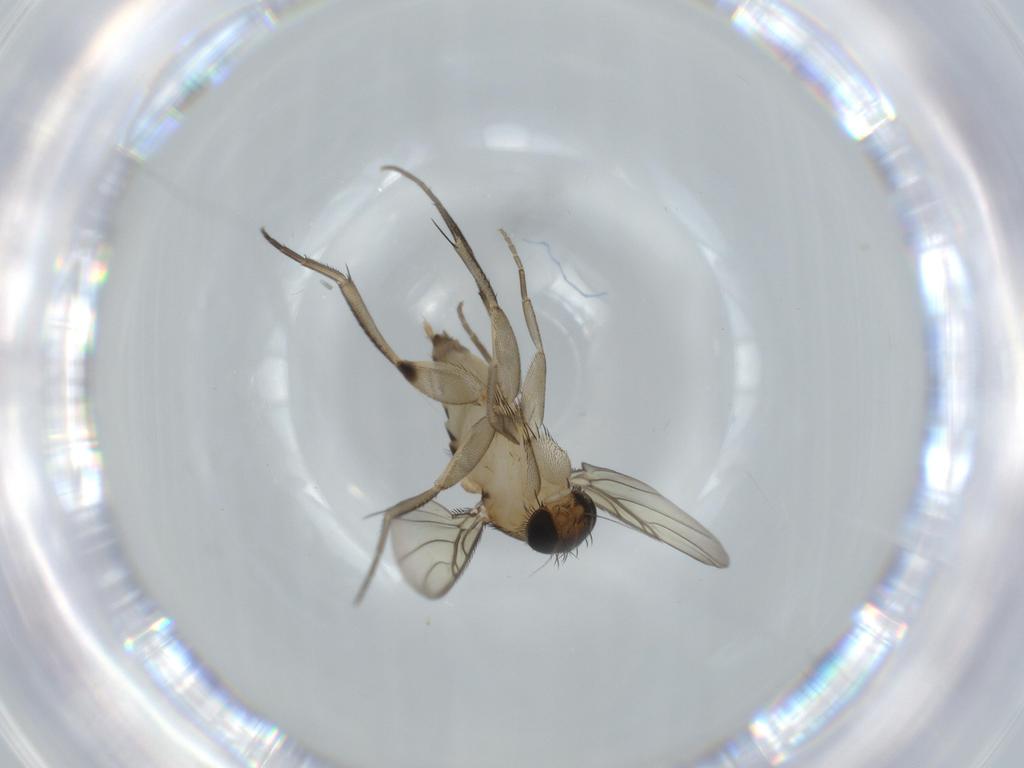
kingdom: Animalia
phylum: Arthropoda
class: Insecta
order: Diptera
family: Phoridae
